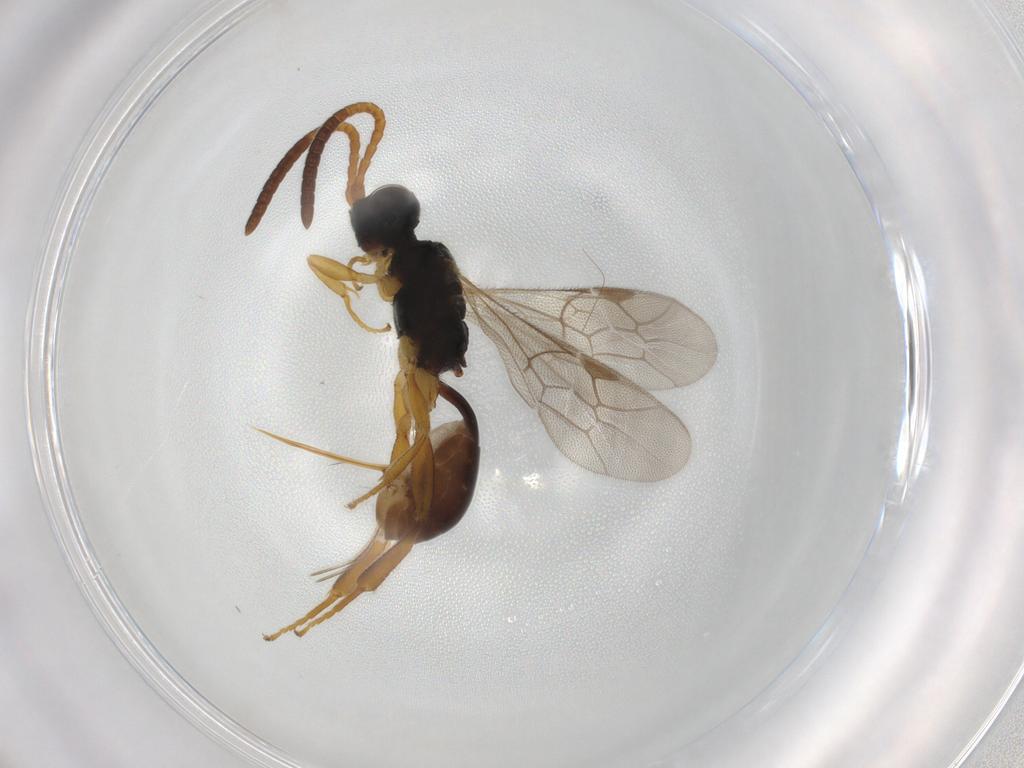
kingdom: Animalia
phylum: Arthropoda
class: Insecta
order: Hymenoptera
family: Ichneumonidae
